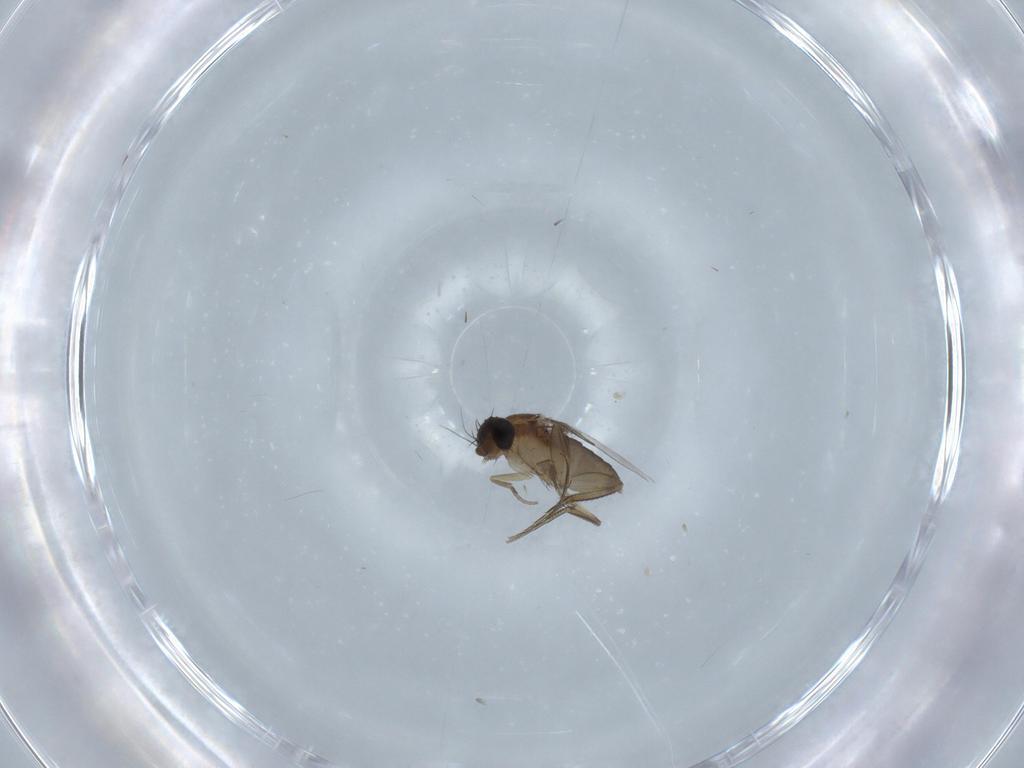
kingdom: Animalia
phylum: Arthropoda
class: Insecta
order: Diptera
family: Phoridae
